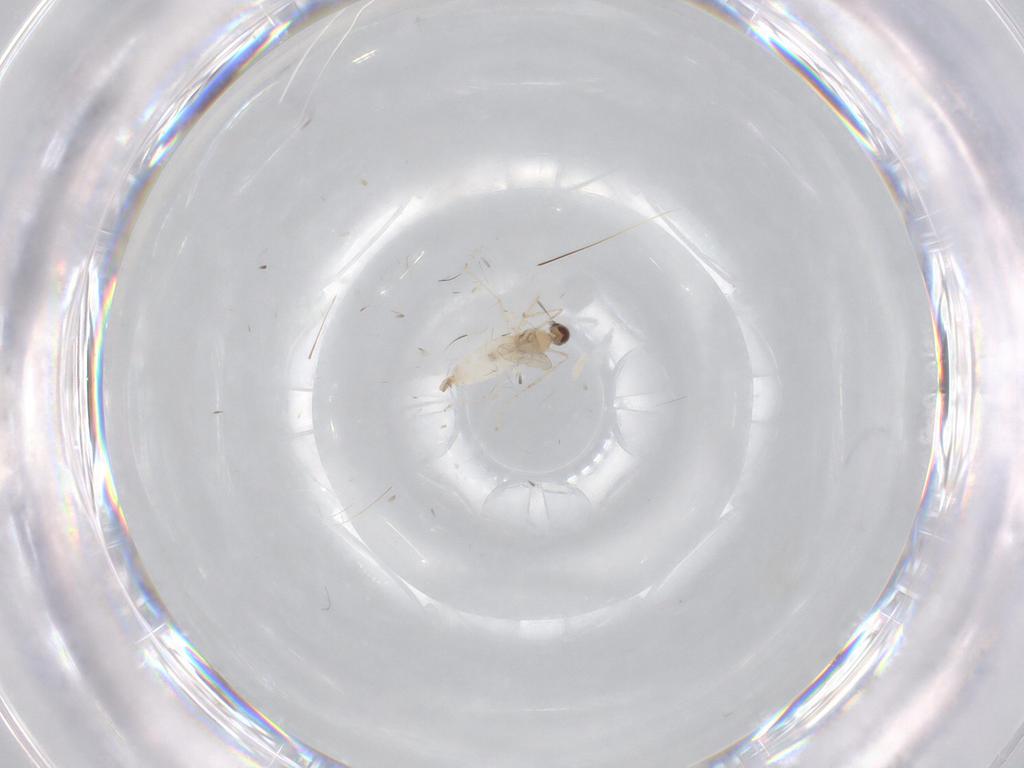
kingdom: Animalia
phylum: Arthropoda
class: Insecta
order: Diptera
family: Cecidomyiidae
